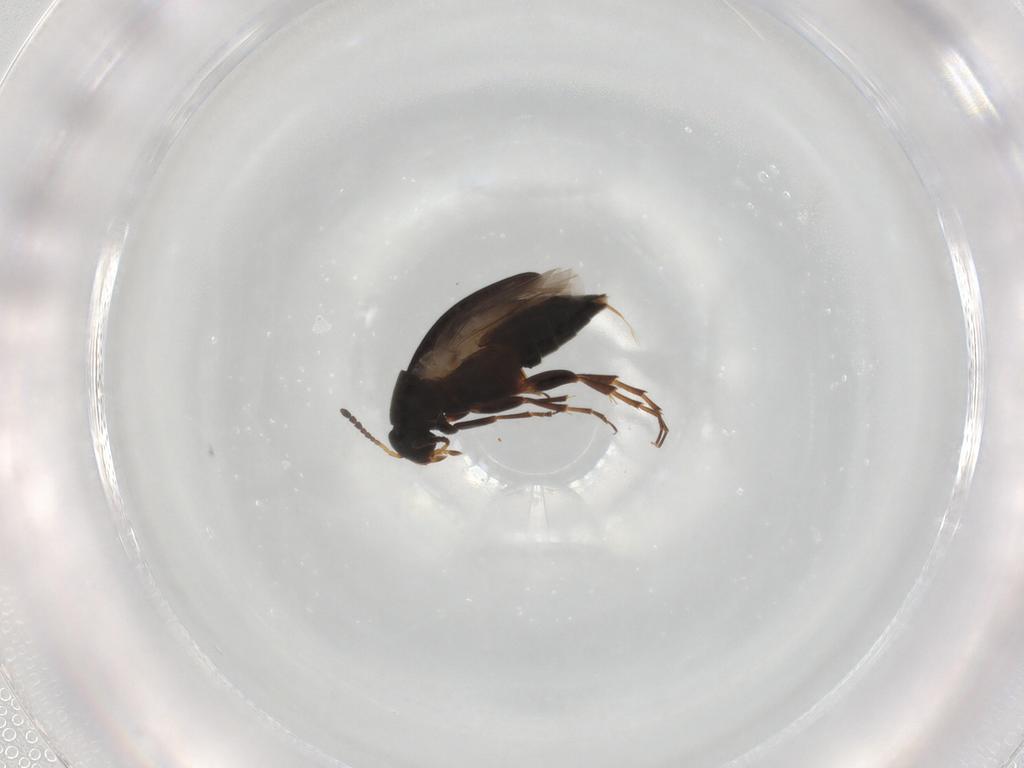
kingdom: Animalia
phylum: Arthropoda
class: Insecta
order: Coleoptera
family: Scraptiidae
